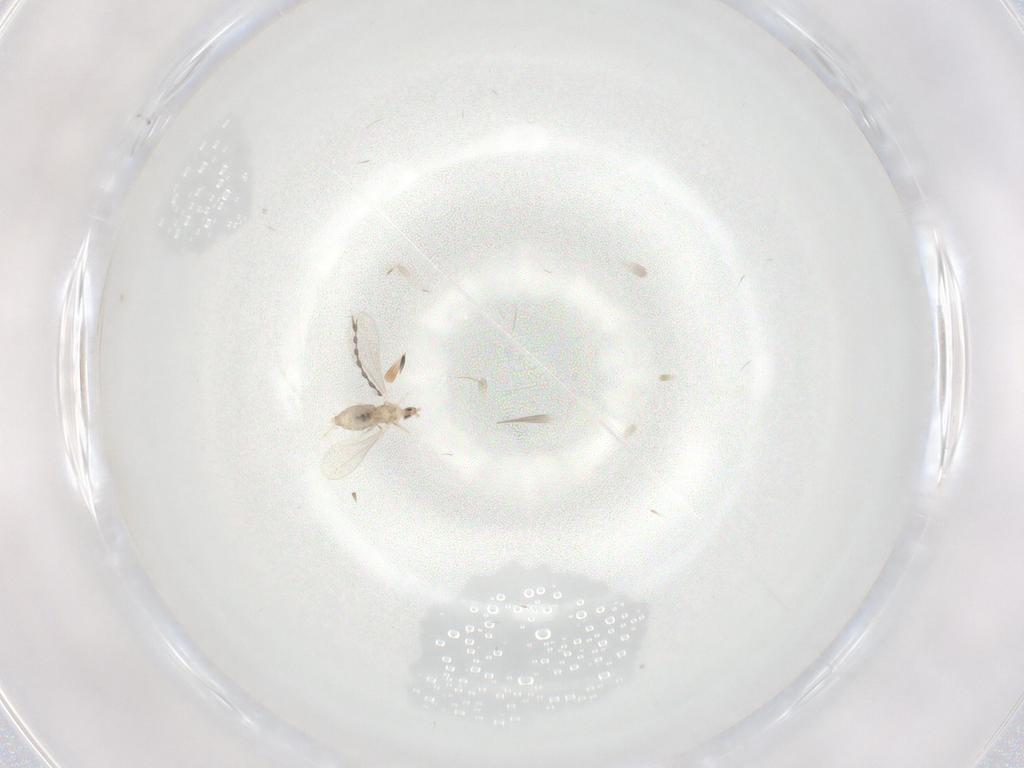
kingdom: Animalia
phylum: Arthropoda
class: Insecta
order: Diptera
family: Cecidomyiidae
